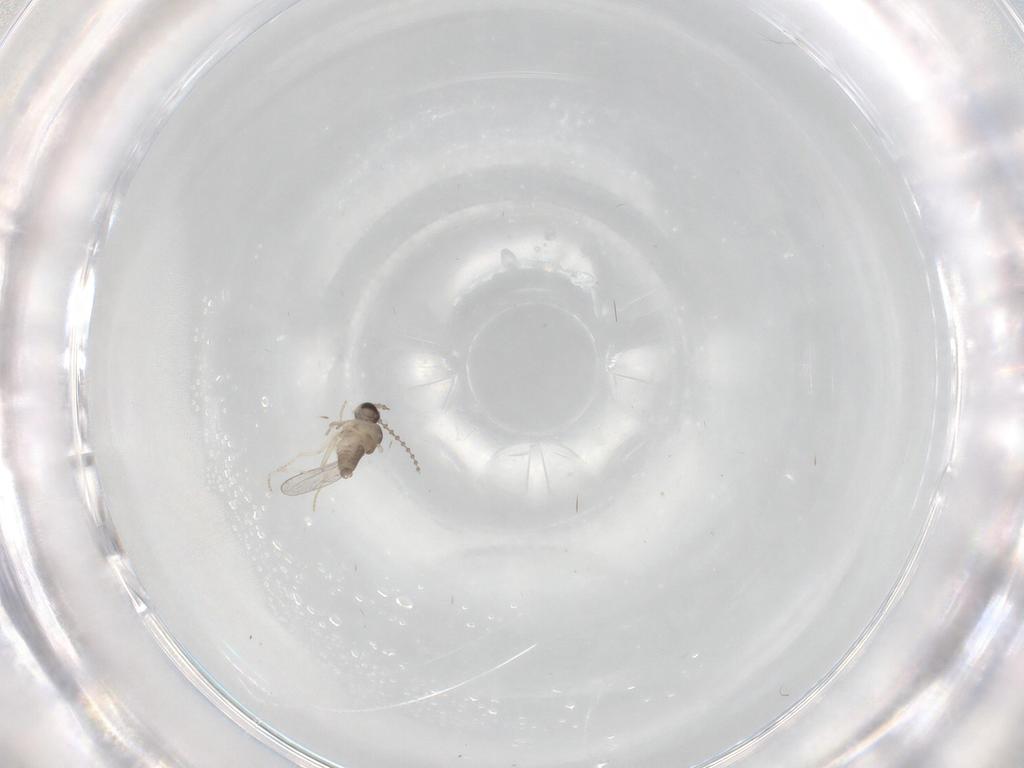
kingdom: Animalia
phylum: Arthropoda
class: Insecta
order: Diptera
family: Cecidomyiidae
